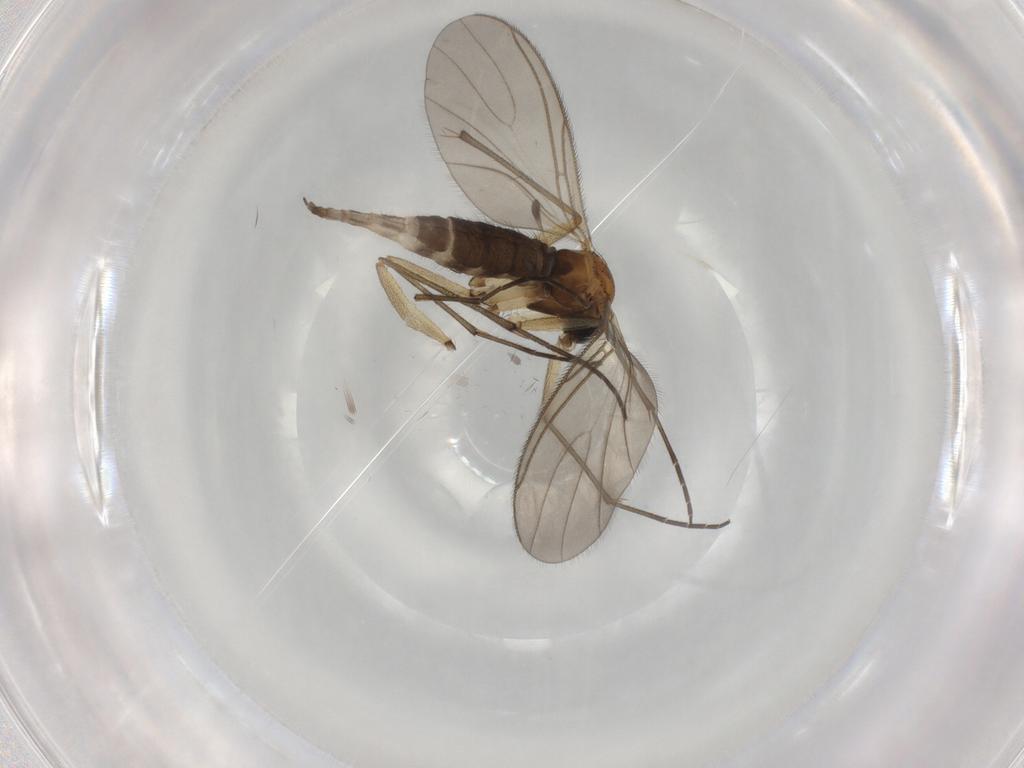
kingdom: Animalia
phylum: Arthropoda
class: Insecta
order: Diptera
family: Sciaridae
